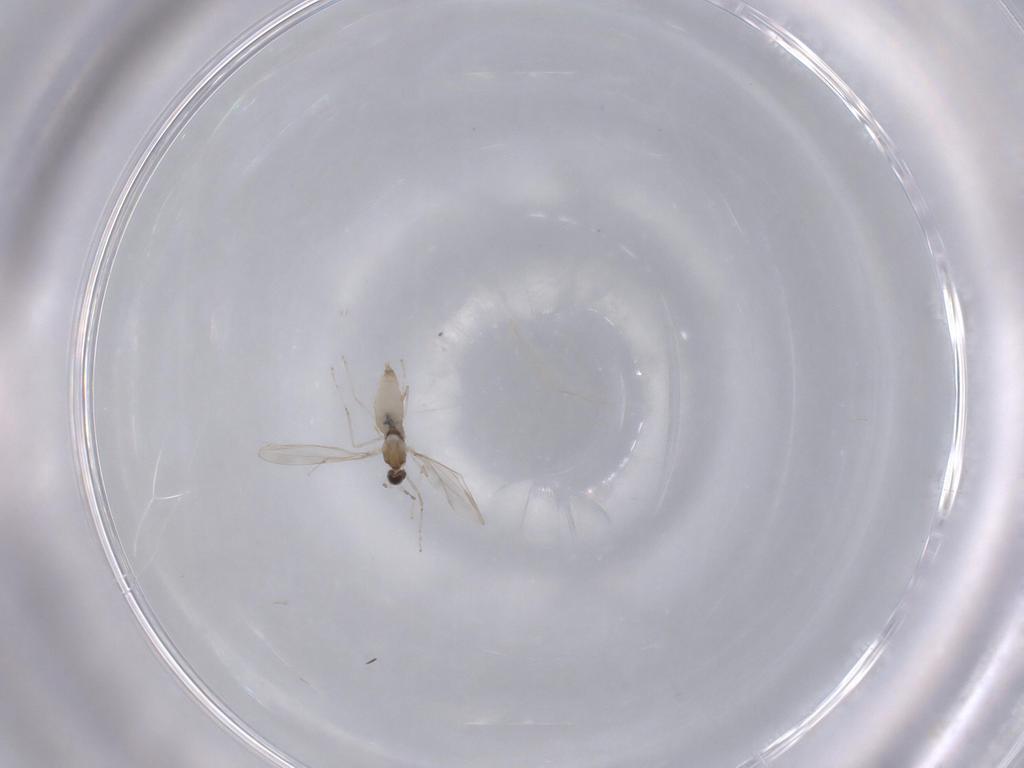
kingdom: Animalia
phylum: Arthropoda
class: Insecta
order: Diptera
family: Cecidomyiidae
